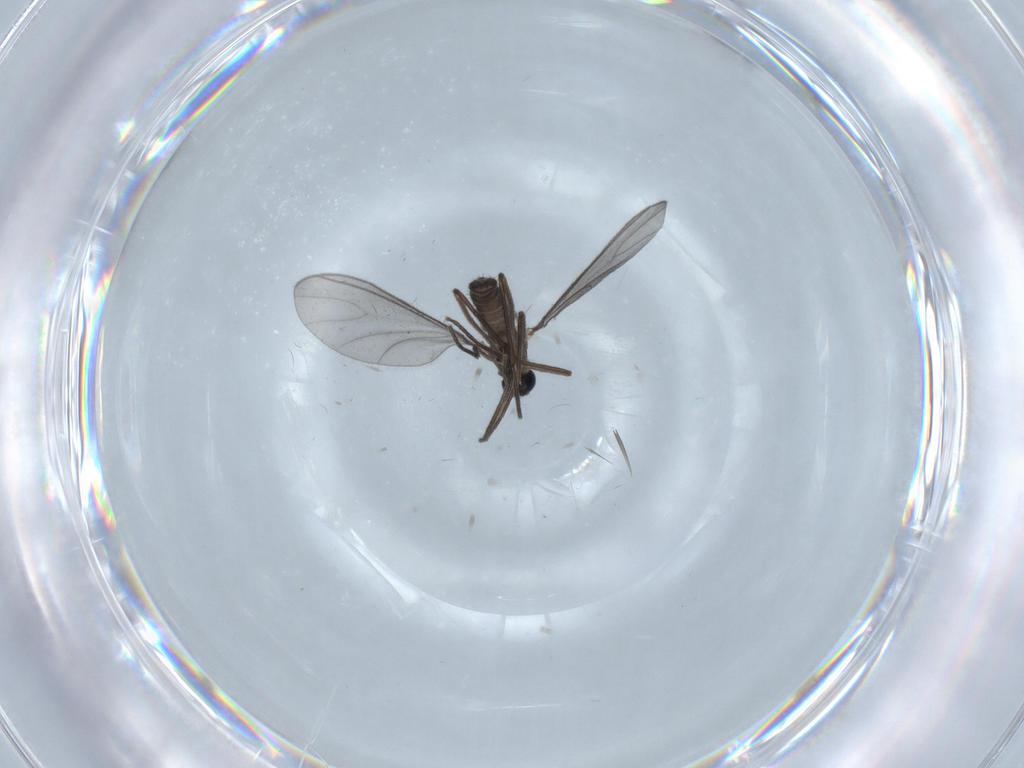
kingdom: Animalia
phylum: Arthropoda
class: Insecta
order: Diptera
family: Sciaridae
